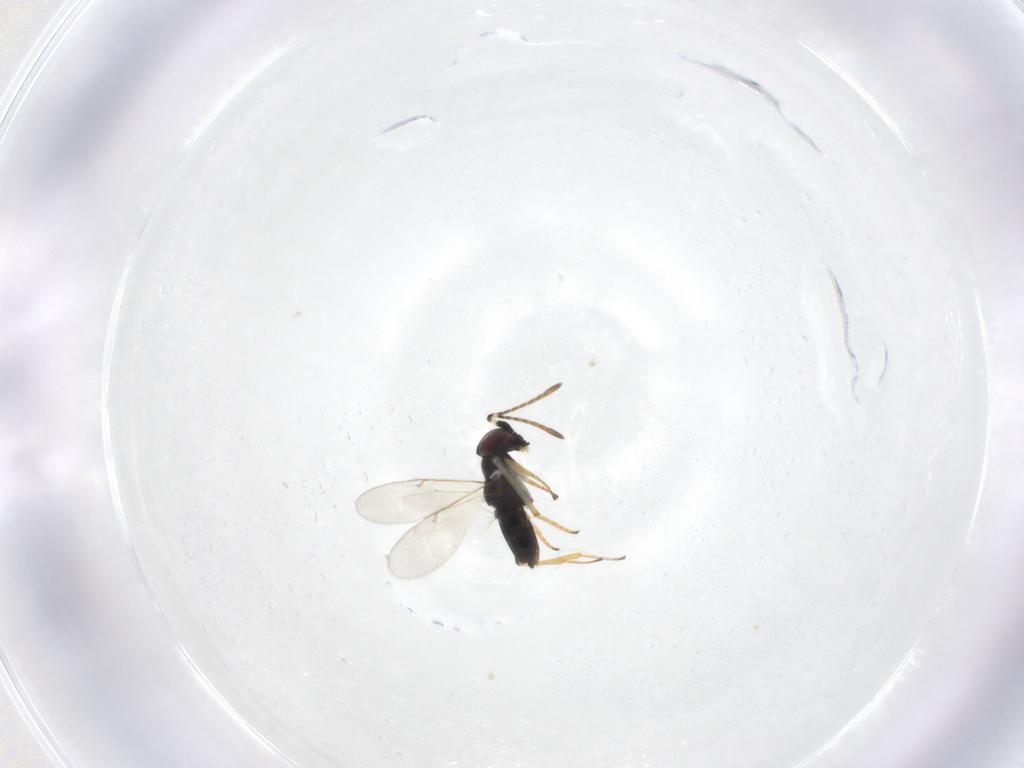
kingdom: Animalia
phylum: Arthropoda
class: Insecta
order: Hymenoptera
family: Encyrtidae
